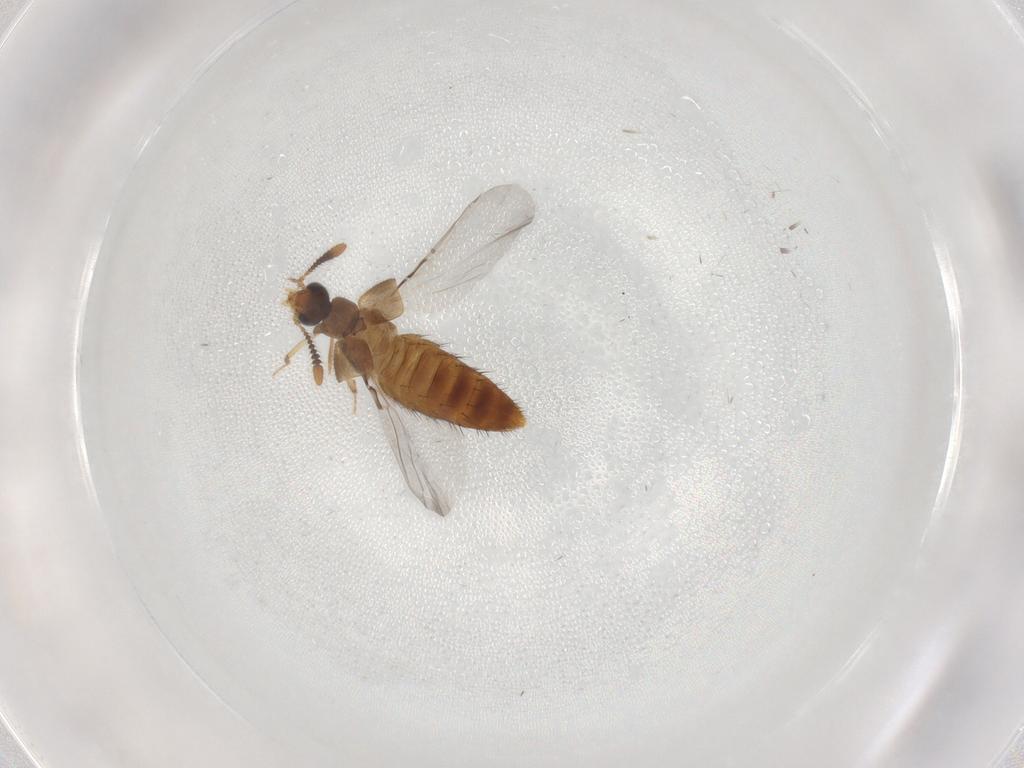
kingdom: Animalia
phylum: Arthropoda
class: Insecta
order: Coleoptera
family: Staphylinidae
